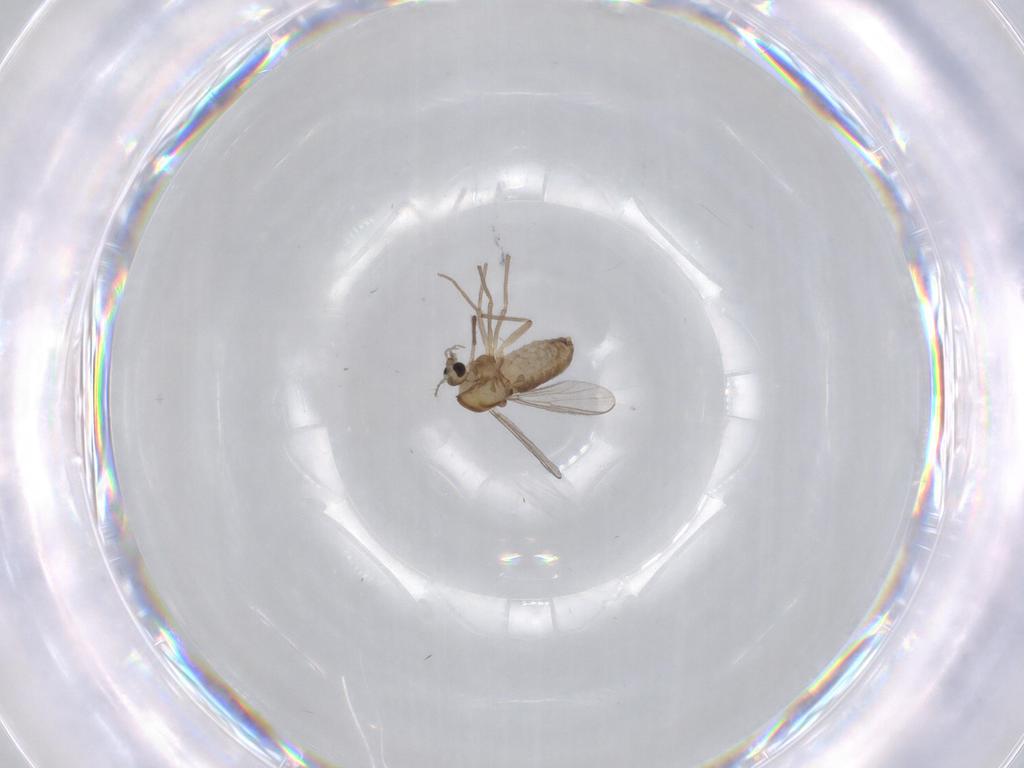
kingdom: Animalia
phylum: Arthropoda
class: Insecta
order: Diptera
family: Chironomidae
